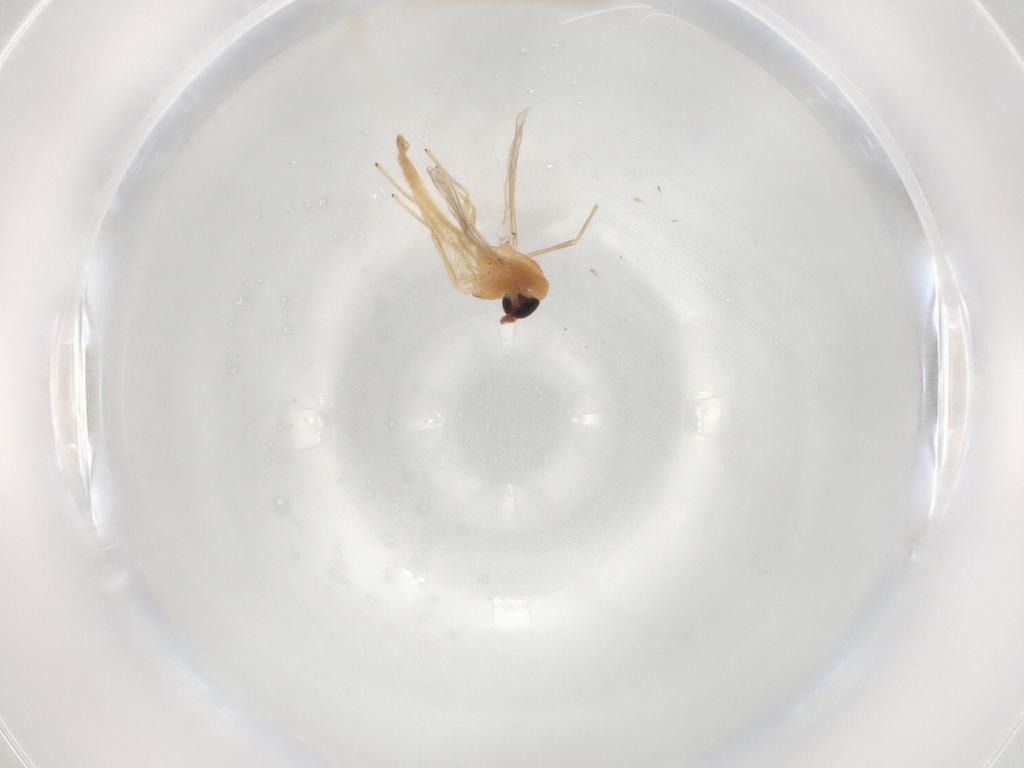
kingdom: Animalia
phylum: Arthropoda
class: Insecta
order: Diptera
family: Chironomidae
